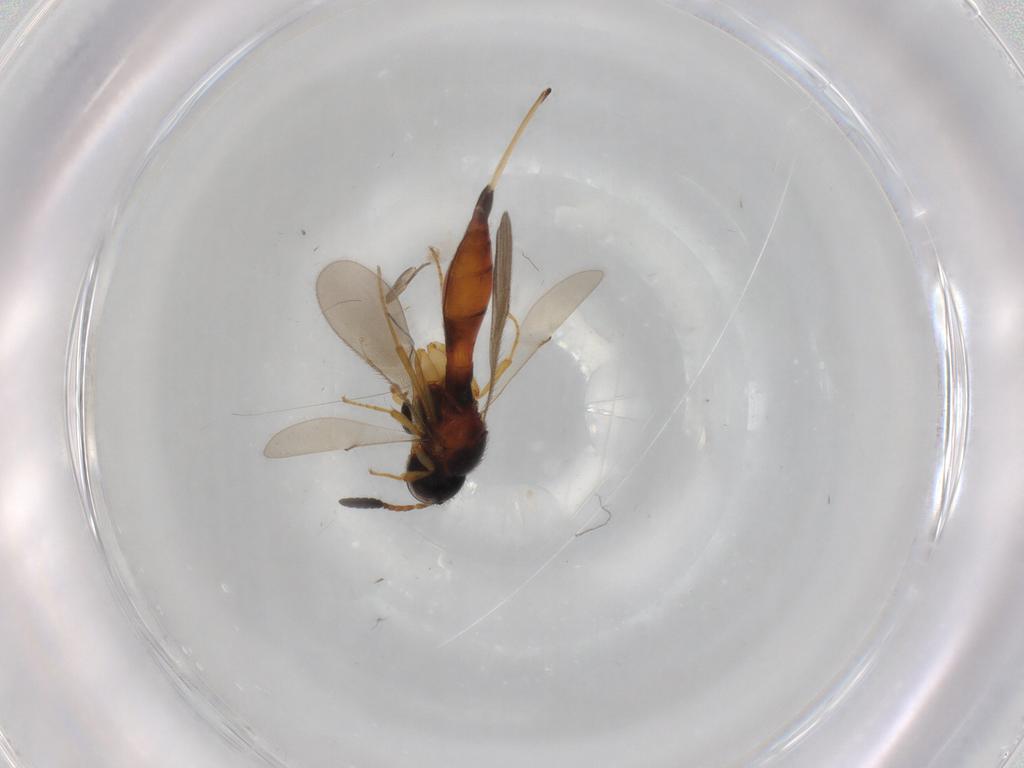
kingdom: Animalia
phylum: Arthropoda
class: Insecta
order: Hymenoptera
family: Scelionidae
